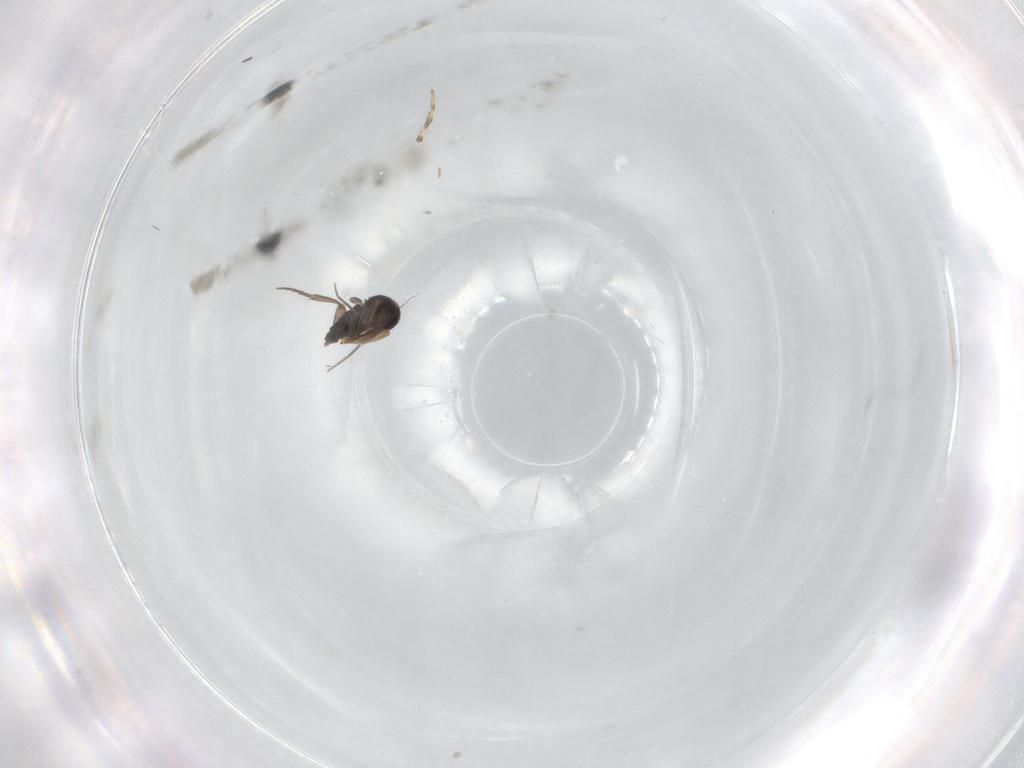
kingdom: Animalia
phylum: Arthropoda
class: Insecta
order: Diptera
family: Phoridae
